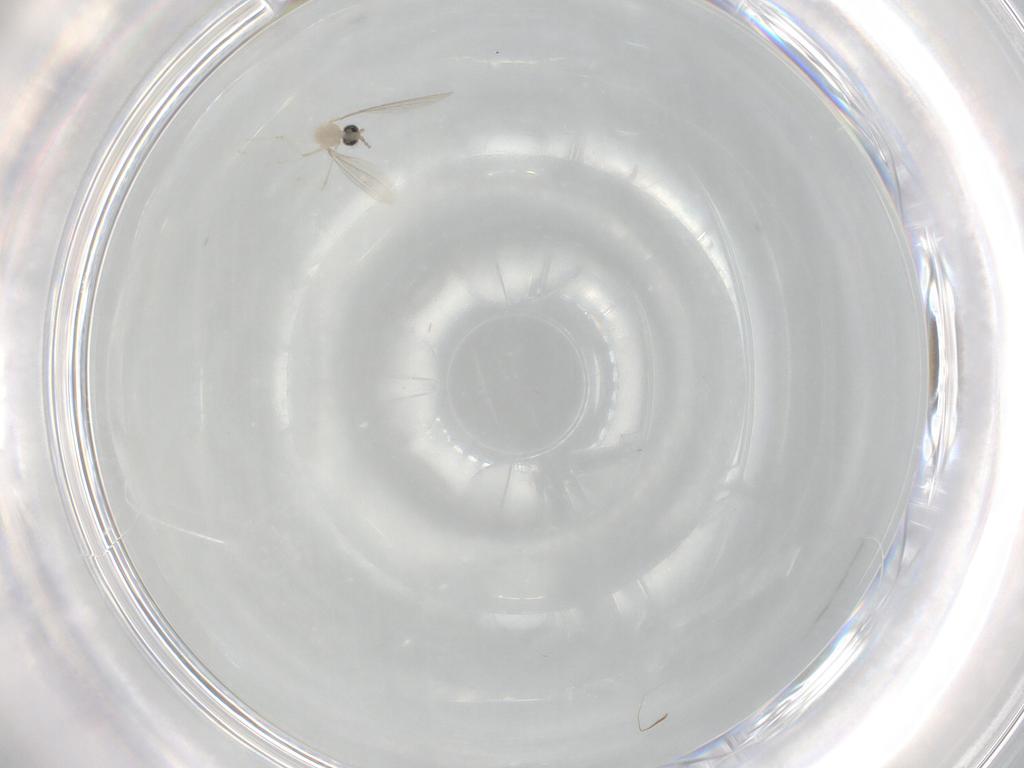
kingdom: Animalia
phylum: Arthropoda
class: Insecta
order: Diptera
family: Cecidomyiidae
